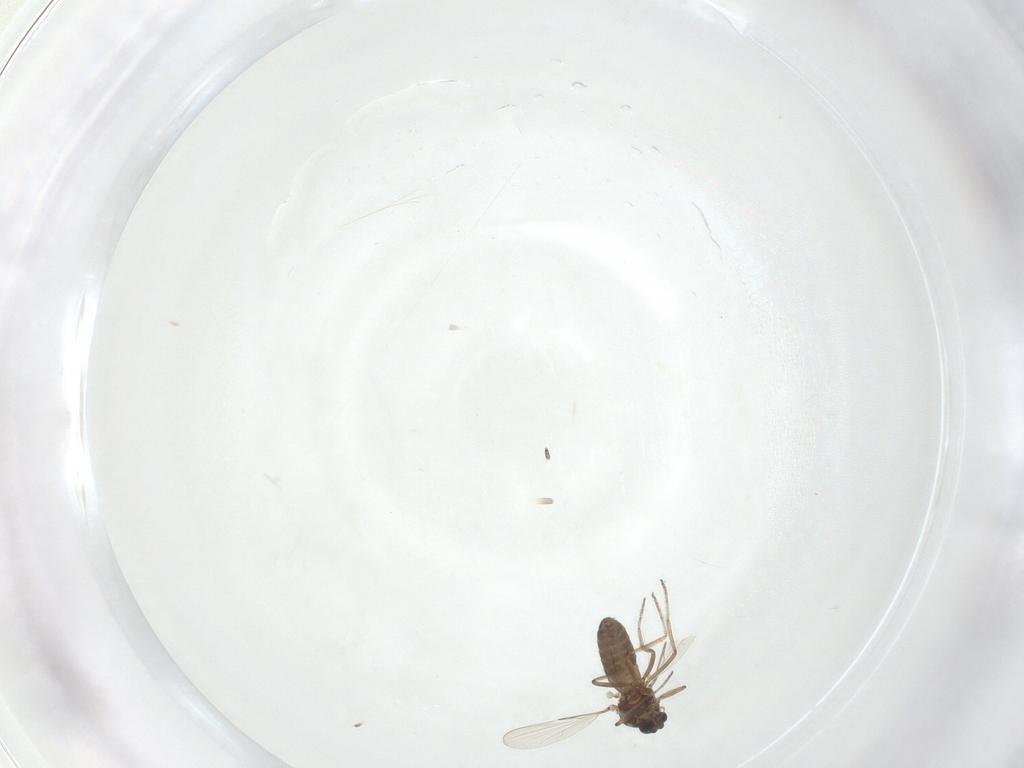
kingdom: Animalia
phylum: Arthropoda
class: Insecta
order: Diptera
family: Ceratopogonidae
